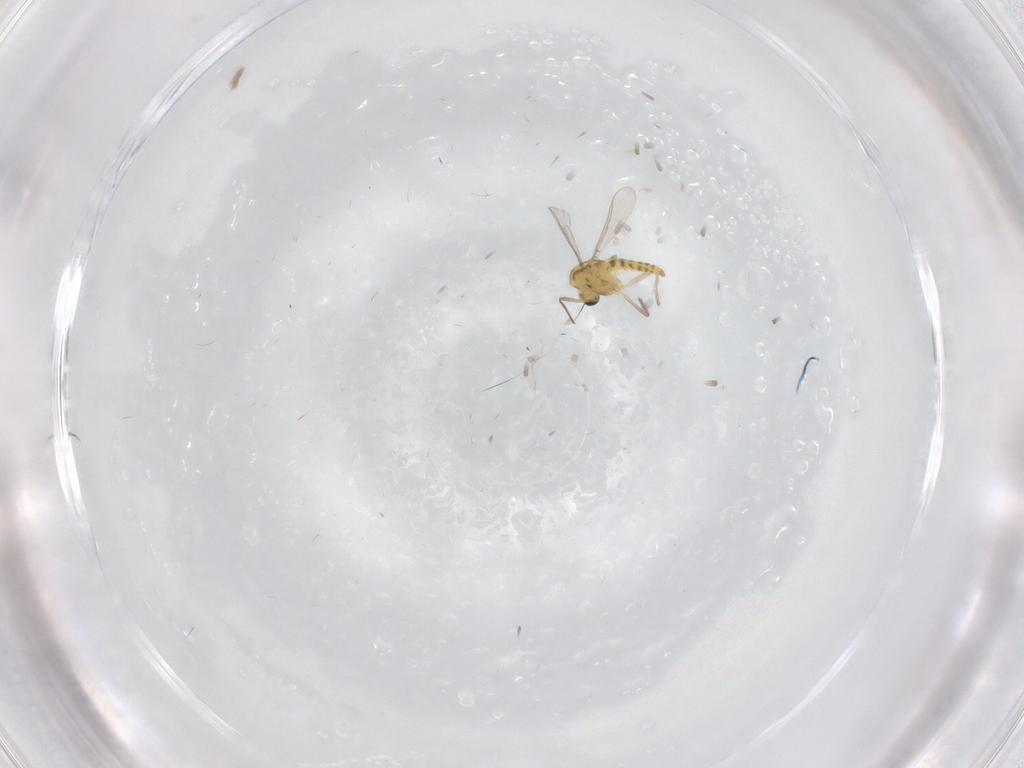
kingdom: Animalia
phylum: Arthropoda
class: Insecta
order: Diptera
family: Chironomidae
